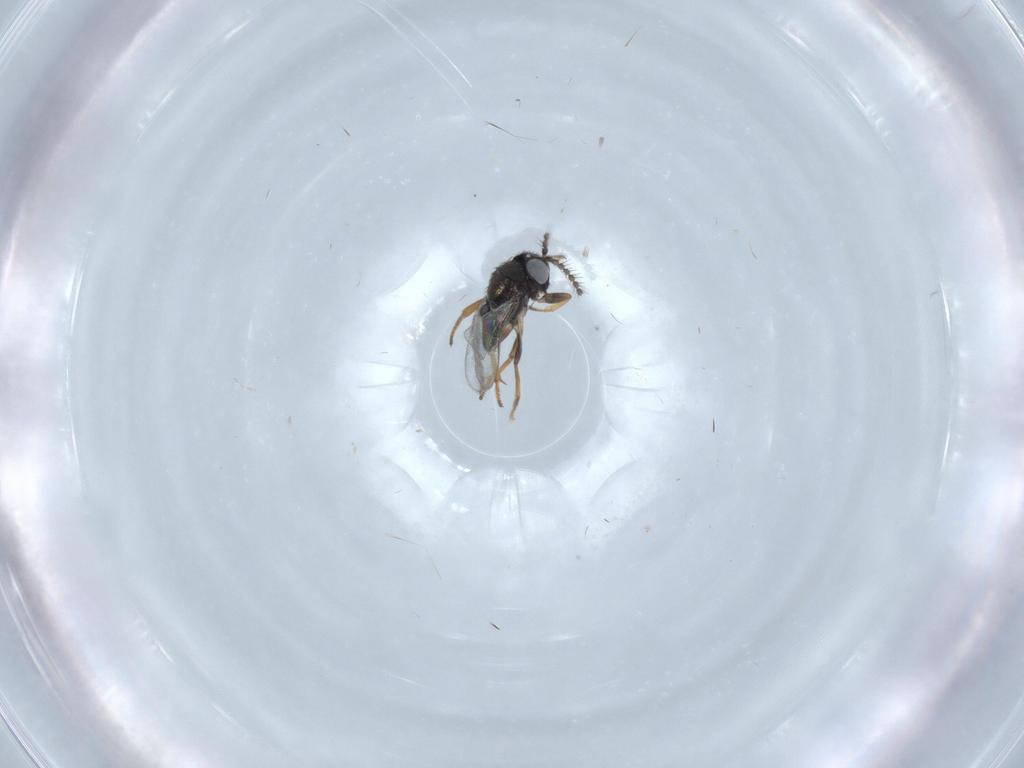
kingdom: Animalia
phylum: Arthropoda
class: Insecta
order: Hymenoptera
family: Encyrtidae
